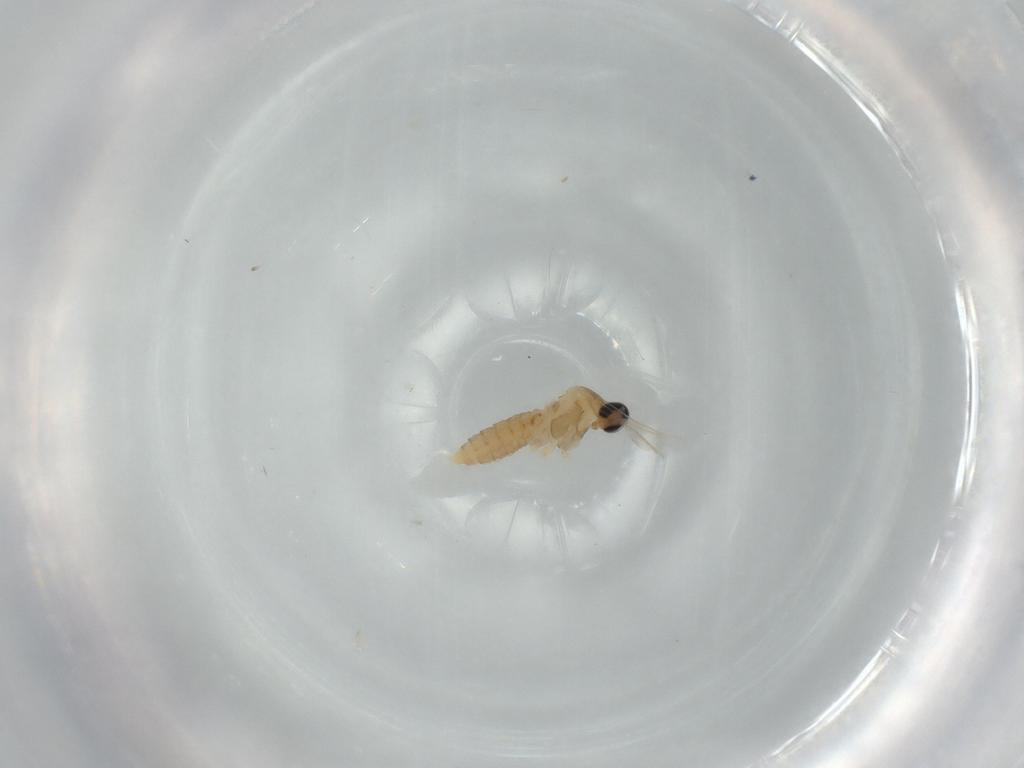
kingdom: Animalia
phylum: Arthropoda
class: Insecta
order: Diptera
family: Cecidomyiidae
